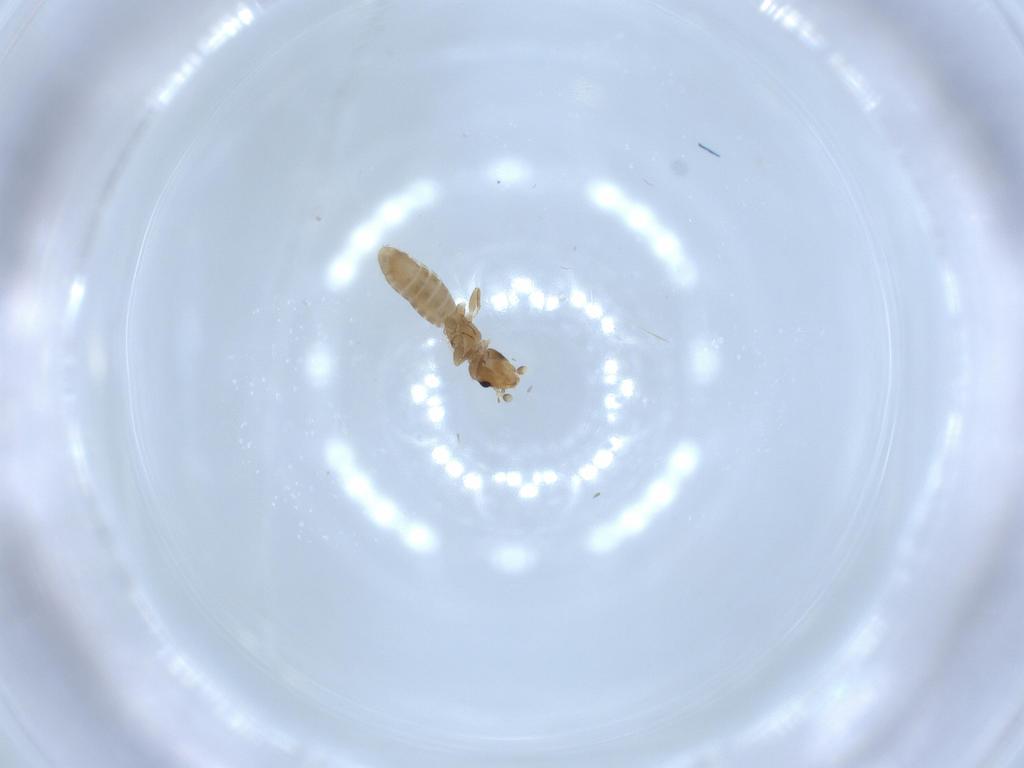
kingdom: Animalia
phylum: Arthropoda
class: Insecta
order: Psocodea
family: Liposcelididae
